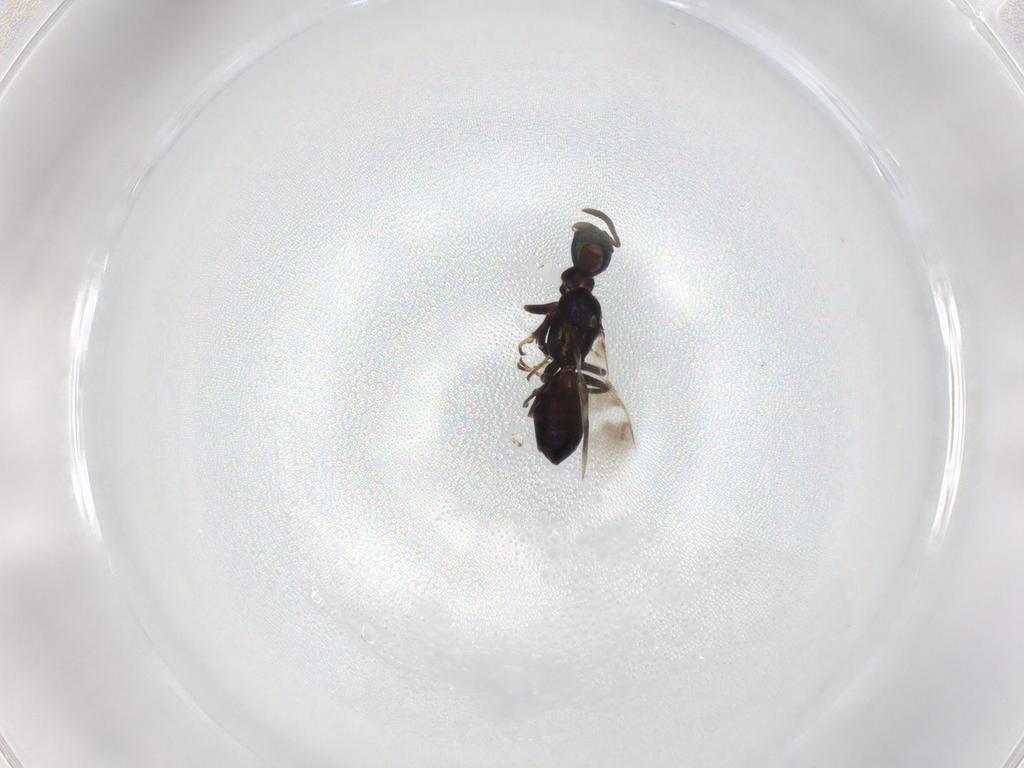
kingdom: Animalia
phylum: Arthropoda
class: Insecta
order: Hymenoptera
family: Eupelmidae
